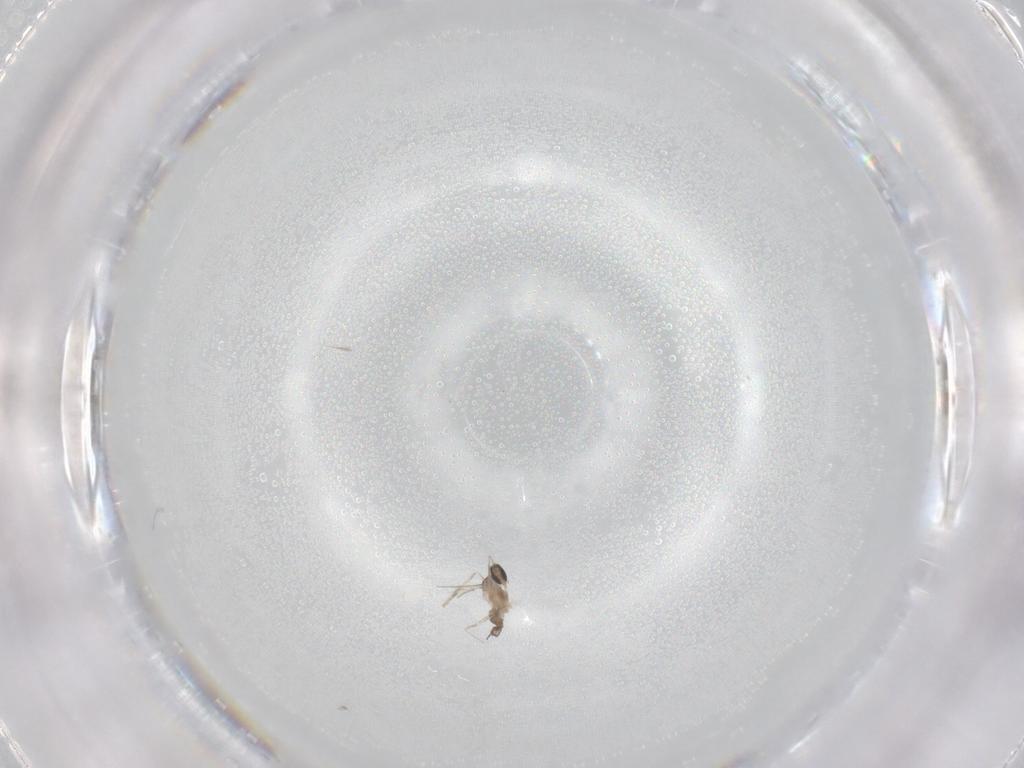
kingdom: Animalia
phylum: Arthropoda
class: Insecta
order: Diptera
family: Cecidomyiidae
